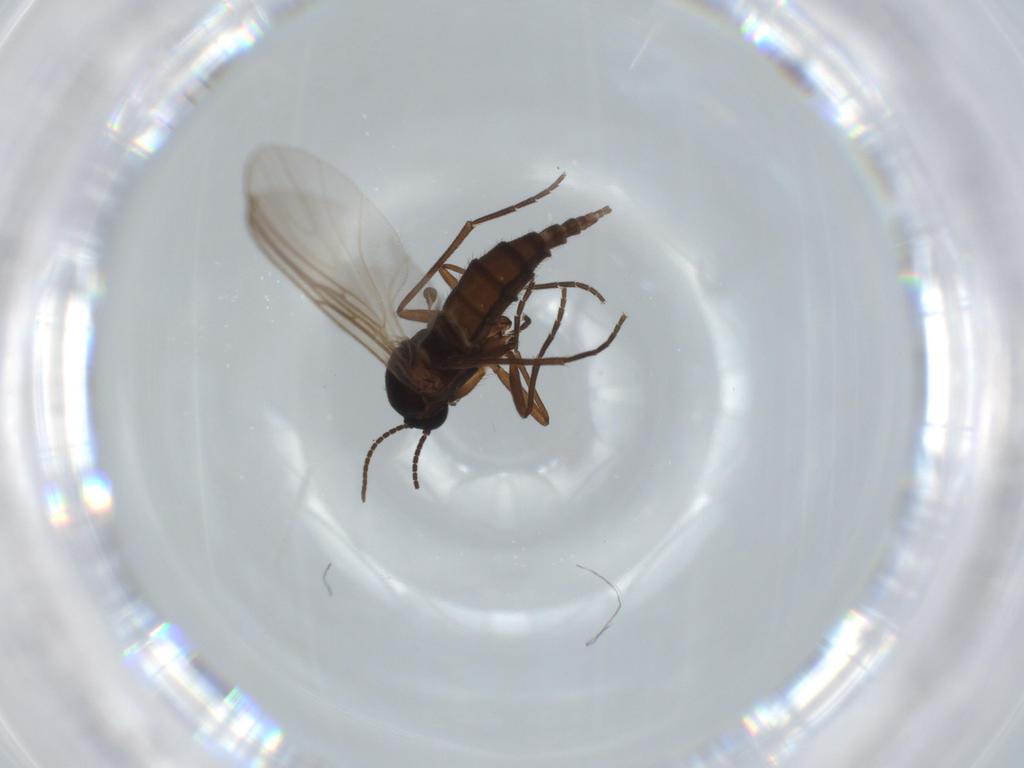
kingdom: Animalia
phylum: Arthropoda
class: Insecta
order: Diptera
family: Sciaridae
